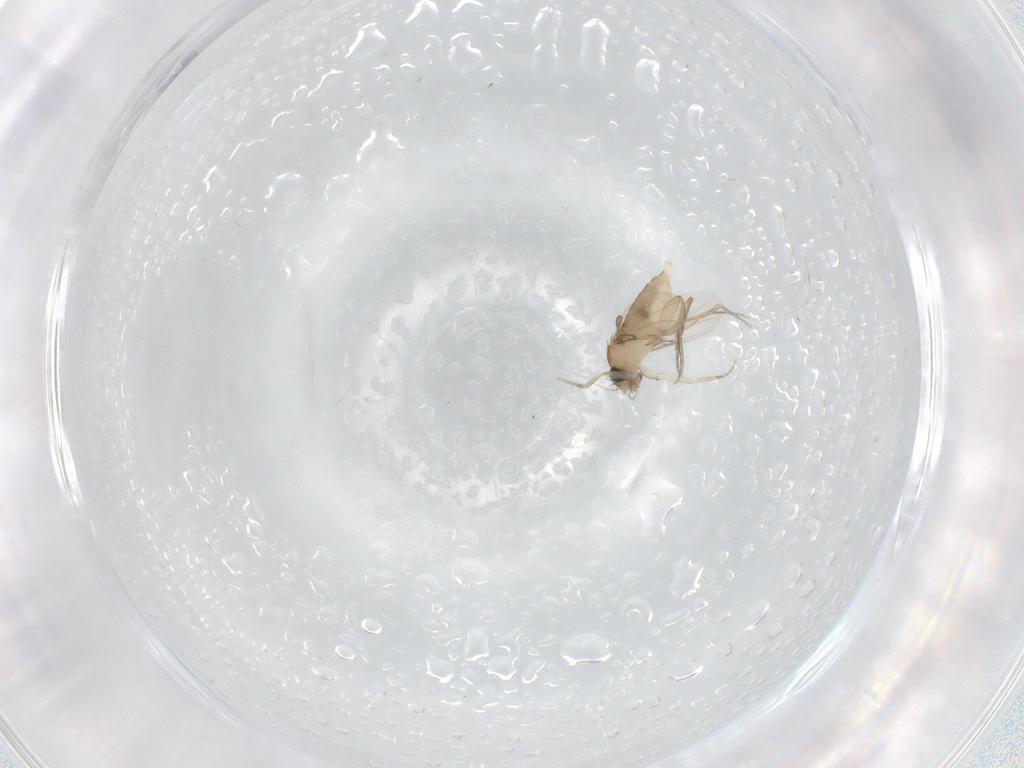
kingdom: Animalia
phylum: Arthropoda
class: Insecta
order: Diptera
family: Phoridae
